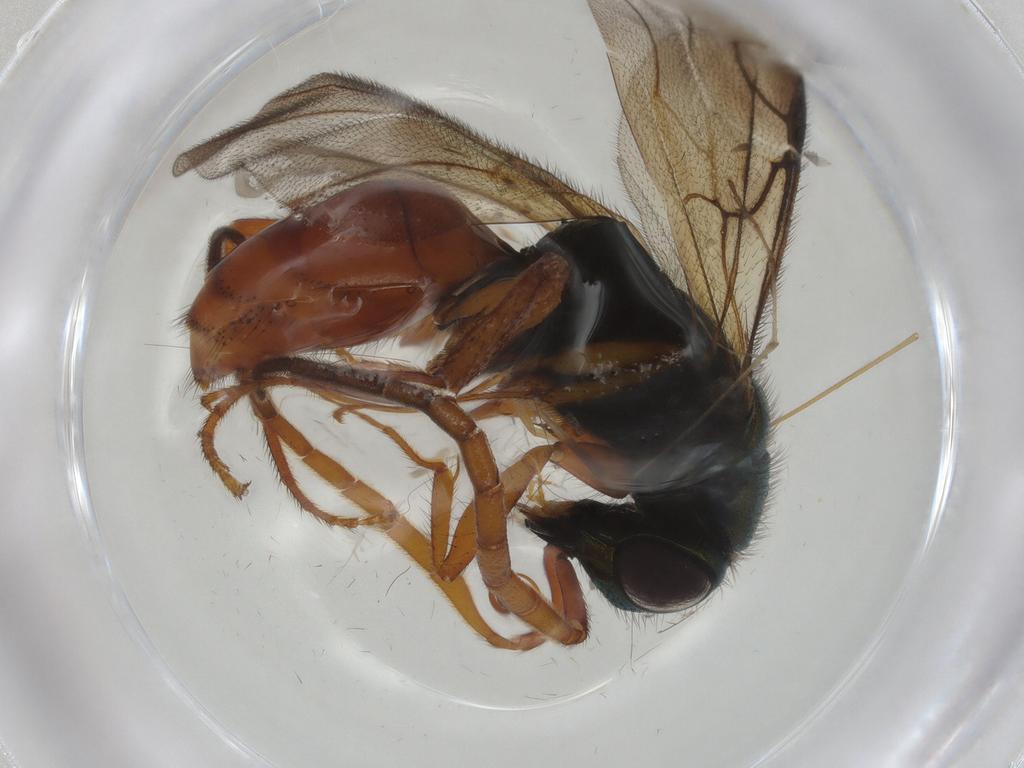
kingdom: Animalia
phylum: Arthropoda
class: Insecta
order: Hymenoptera
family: Chrysididae
